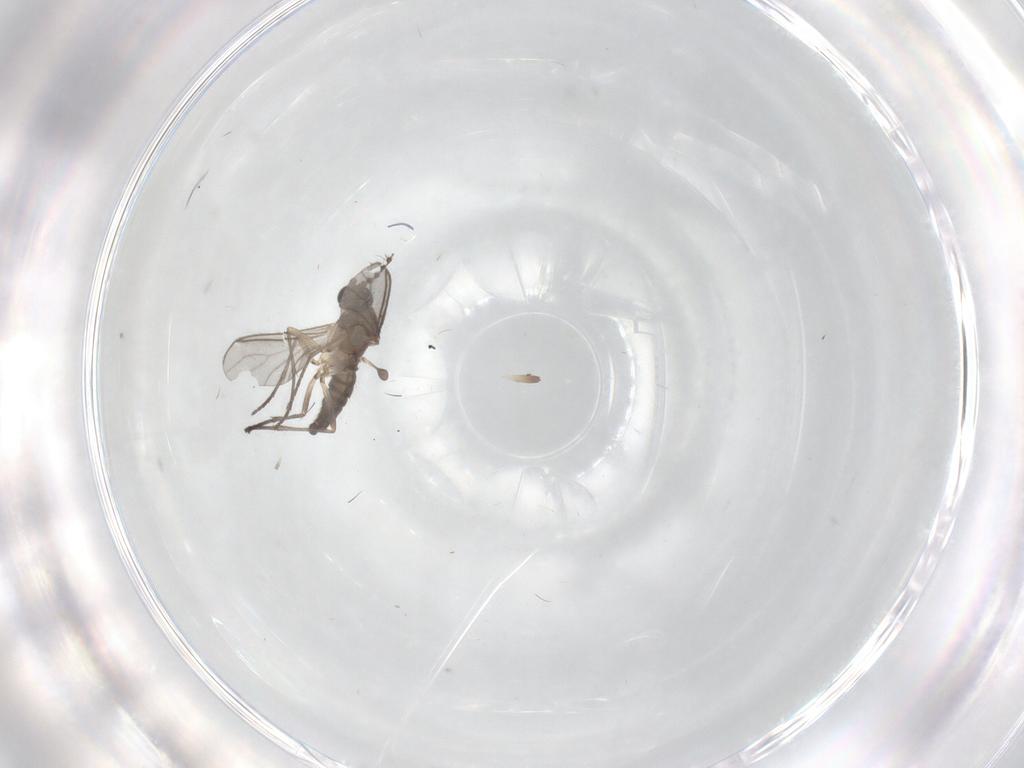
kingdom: Animalia
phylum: Arthropoda
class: Insecta
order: Diptera
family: Sciaridae
